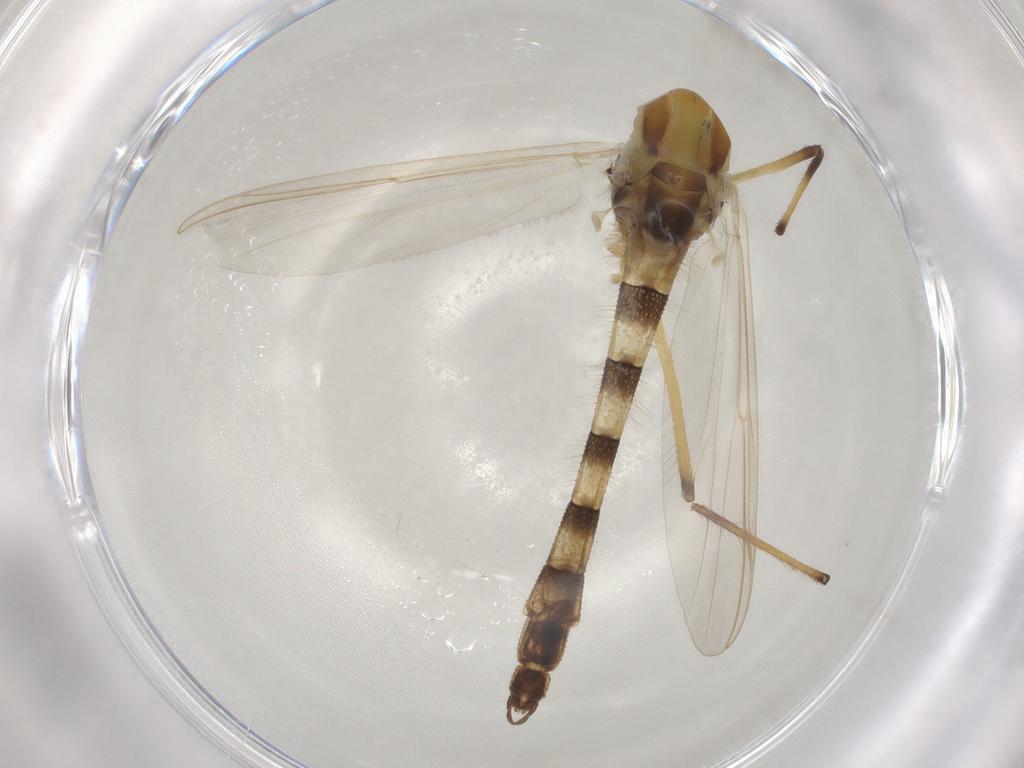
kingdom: Animalia
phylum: Arthropoda
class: Insecta
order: Diptera
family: Chironomidae
